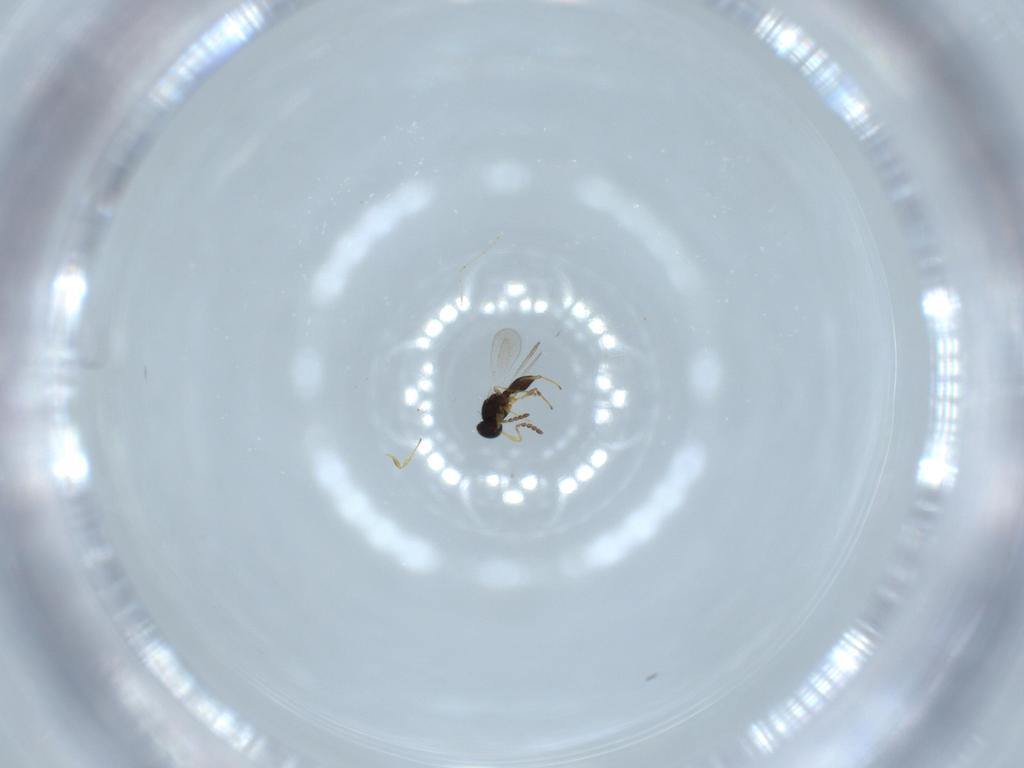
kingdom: Animalia
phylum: Arthropoda
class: Insecta
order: Hymenoptera
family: Platygastridae
